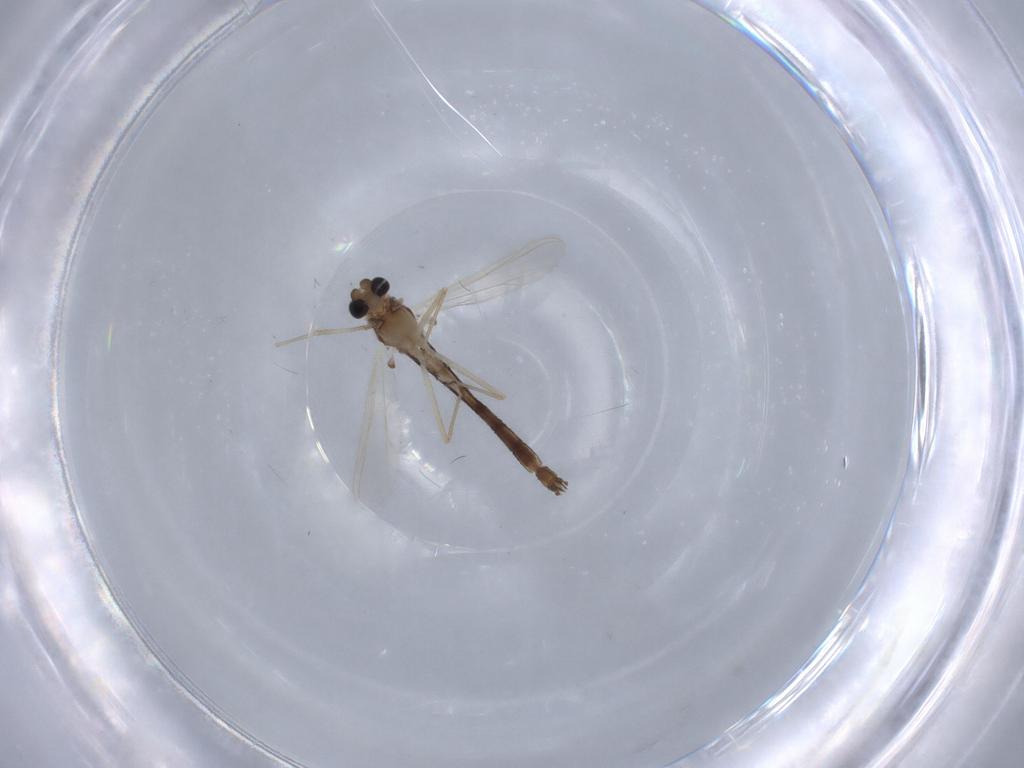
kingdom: Animalia
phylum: Arthropoda
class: Insecta
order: Diptera
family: Chironomidae
